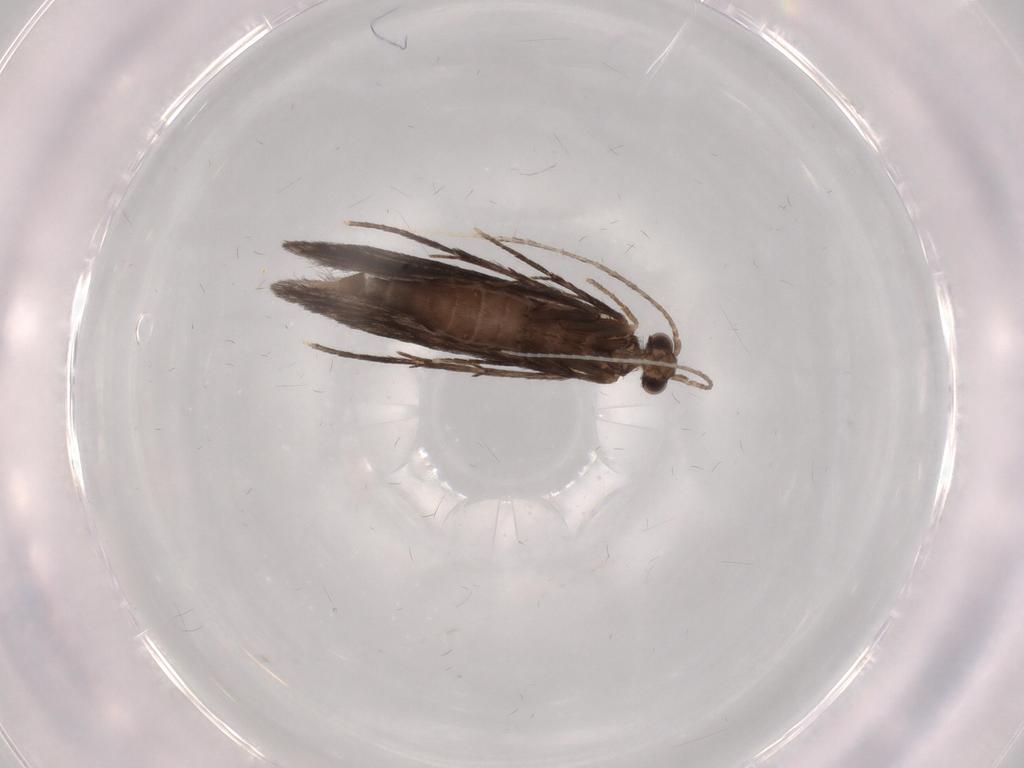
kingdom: Animalia
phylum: Arthropoda
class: Insecta
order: Trichoptera
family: Xiphocentronidae
